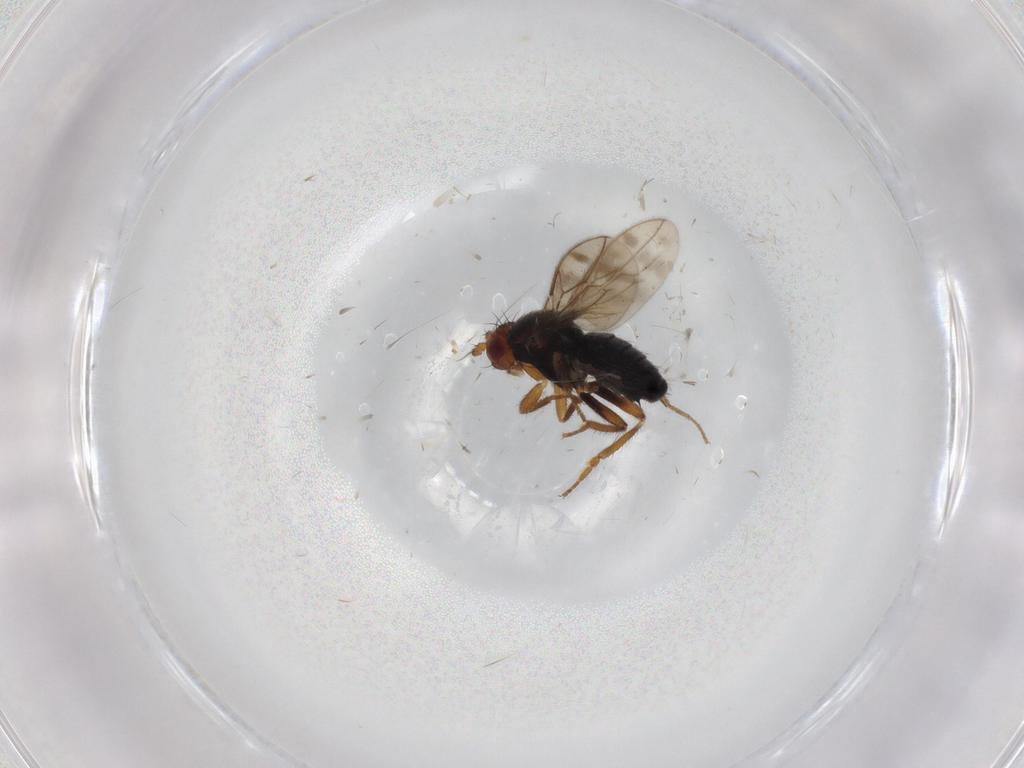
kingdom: Animalia
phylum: Arthropoda
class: Insecta
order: Diptera
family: Sphaeroceridae
